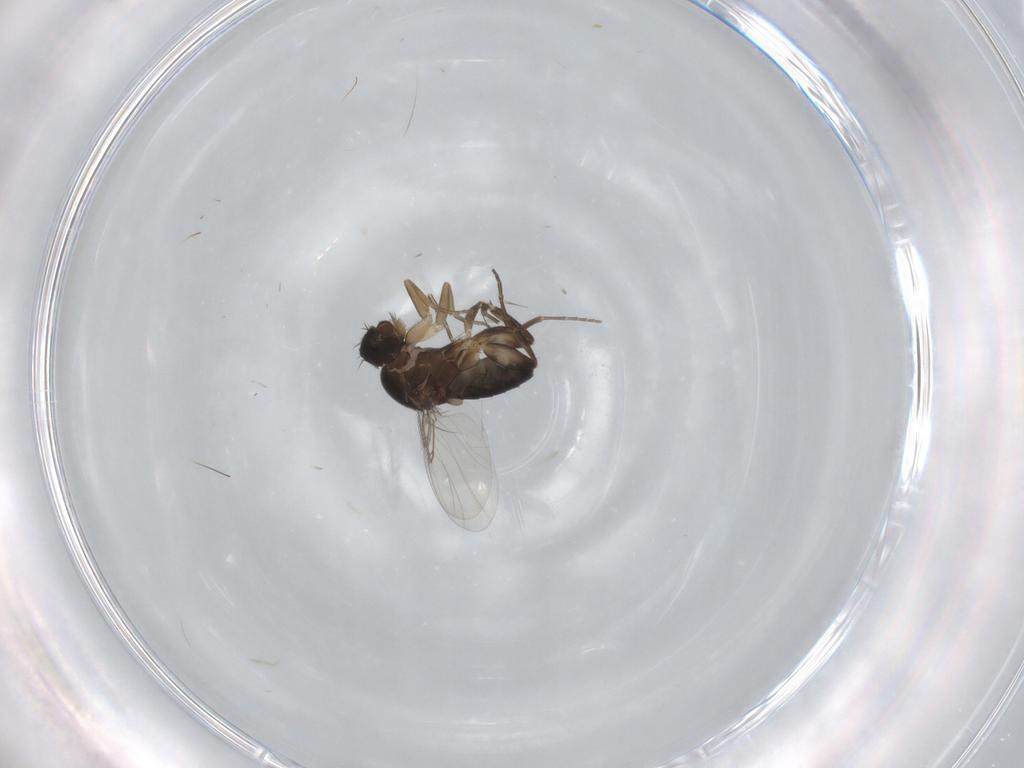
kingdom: Animalia
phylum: Arthropoda
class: Insecta
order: Diptera
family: Phoridae
